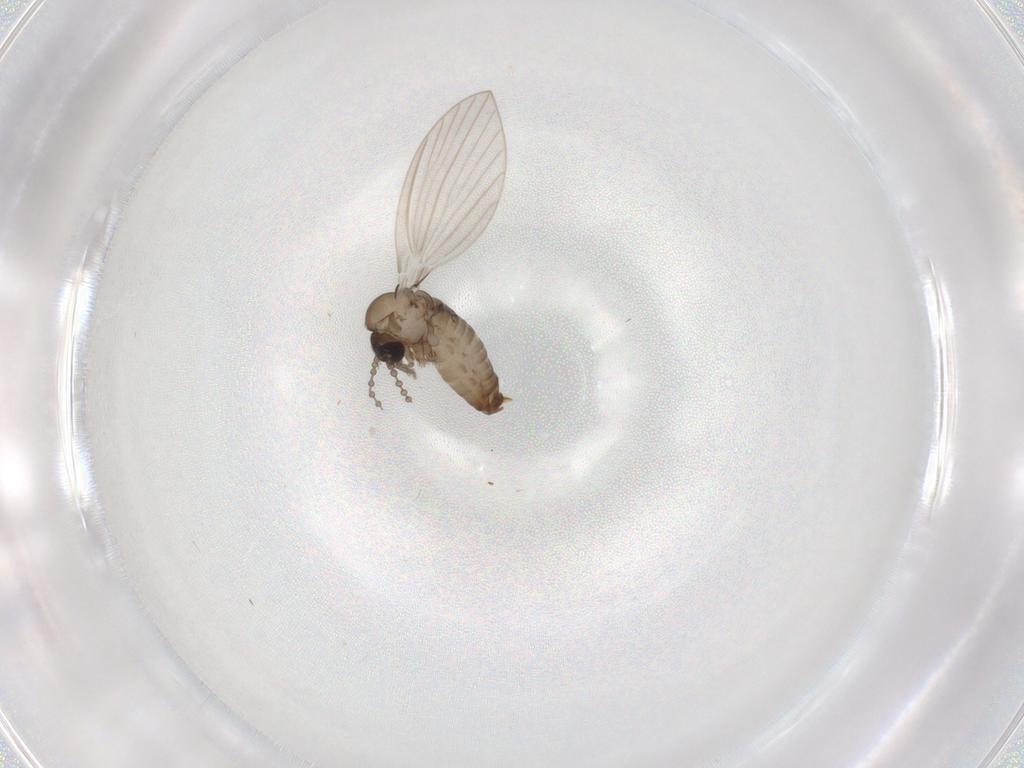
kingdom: Animalia
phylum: Arthropoda
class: Insecta
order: Diptera
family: Psychodidae
